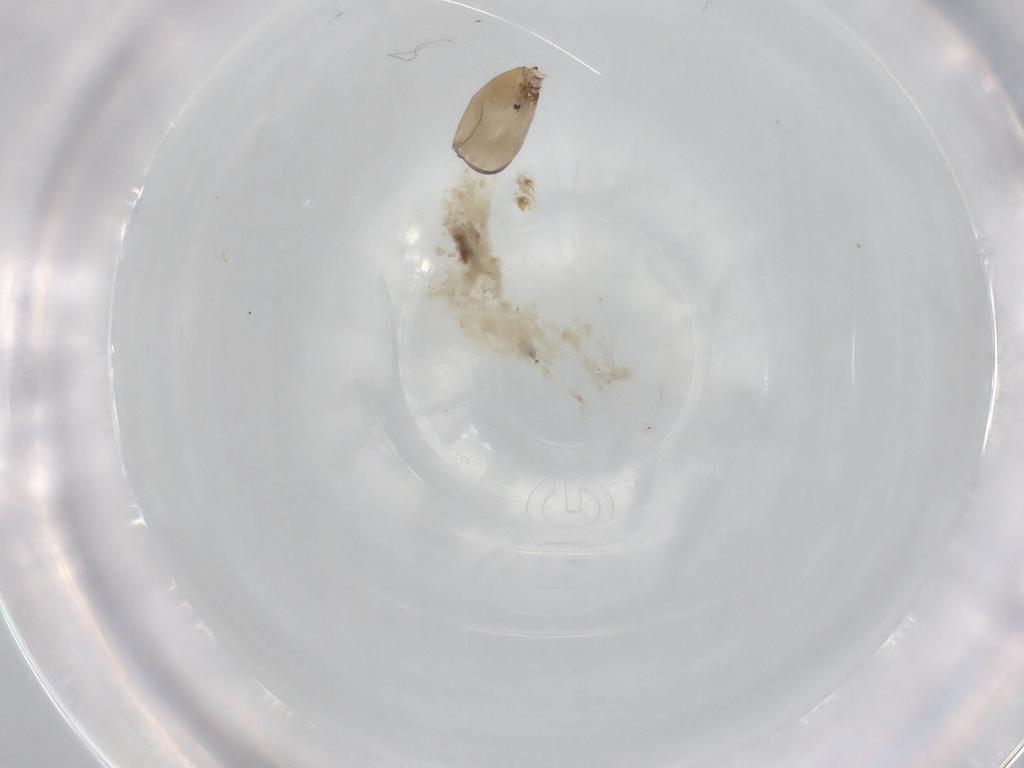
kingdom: Animalia
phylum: Arthropoda
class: Insecta
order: Diptera
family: Chironomidae
